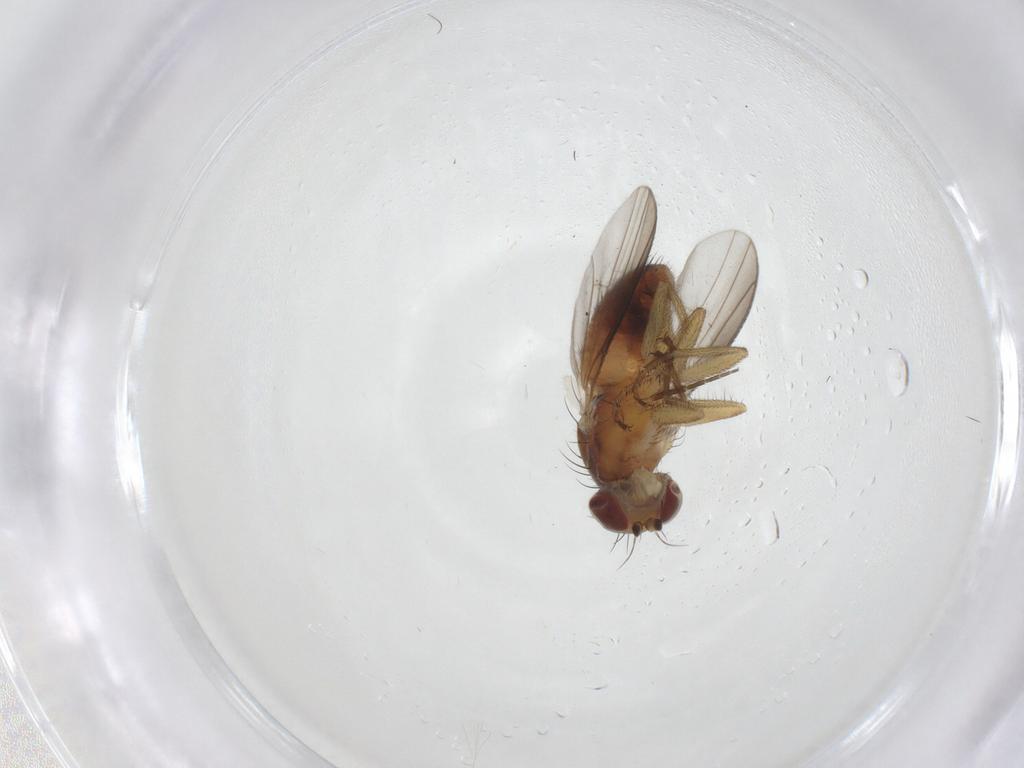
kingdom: Animalia
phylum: Arthropoda
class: Insecta
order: Diptera
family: Heleomyzidae
